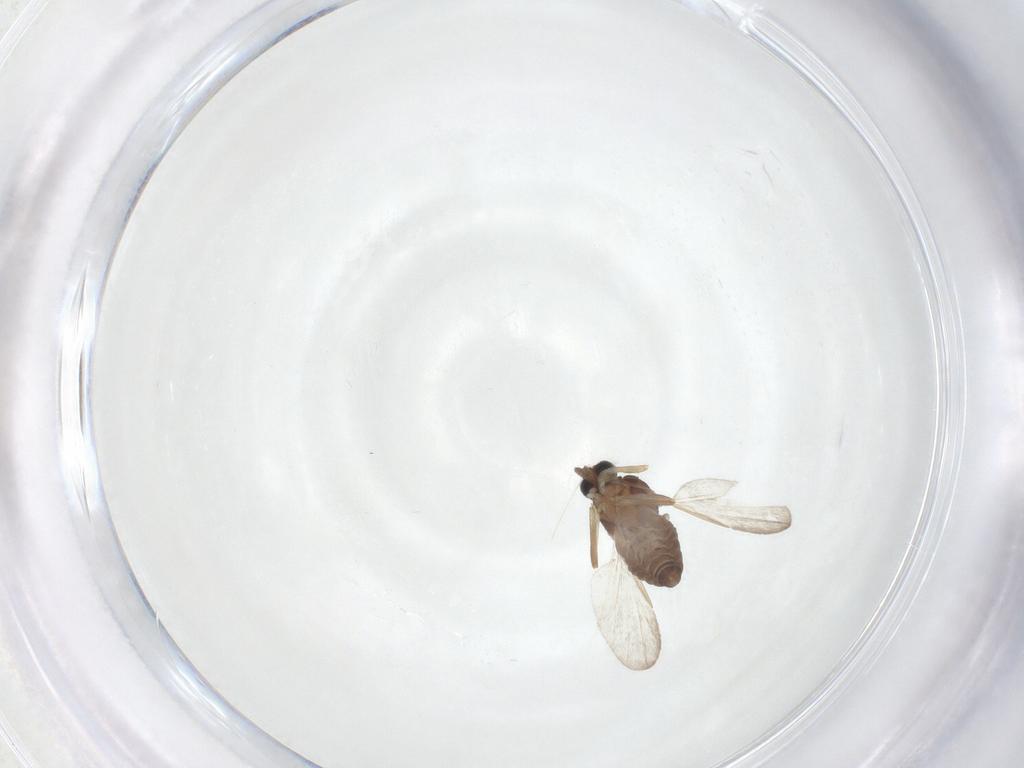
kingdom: Animalia
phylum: Arthropoda
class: Insecta
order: Diptera
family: Ceratopogonidae
